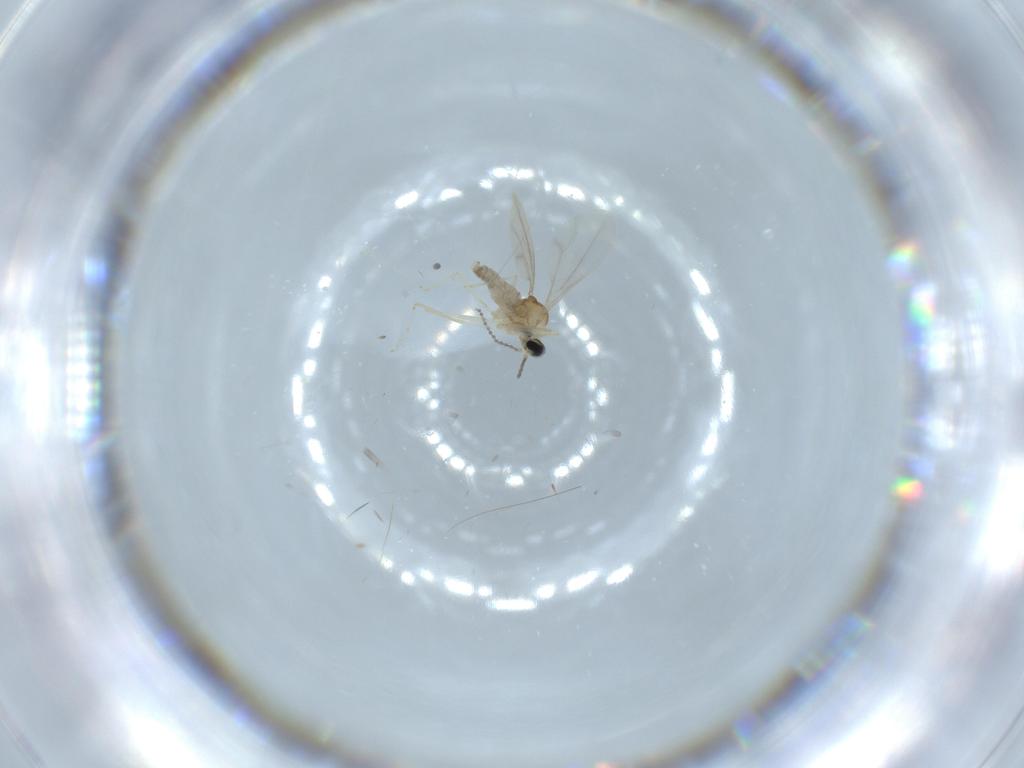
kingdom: Animalia
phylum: Arthropoda
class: Insecta
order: Diptera
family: Cecidomyiidae
